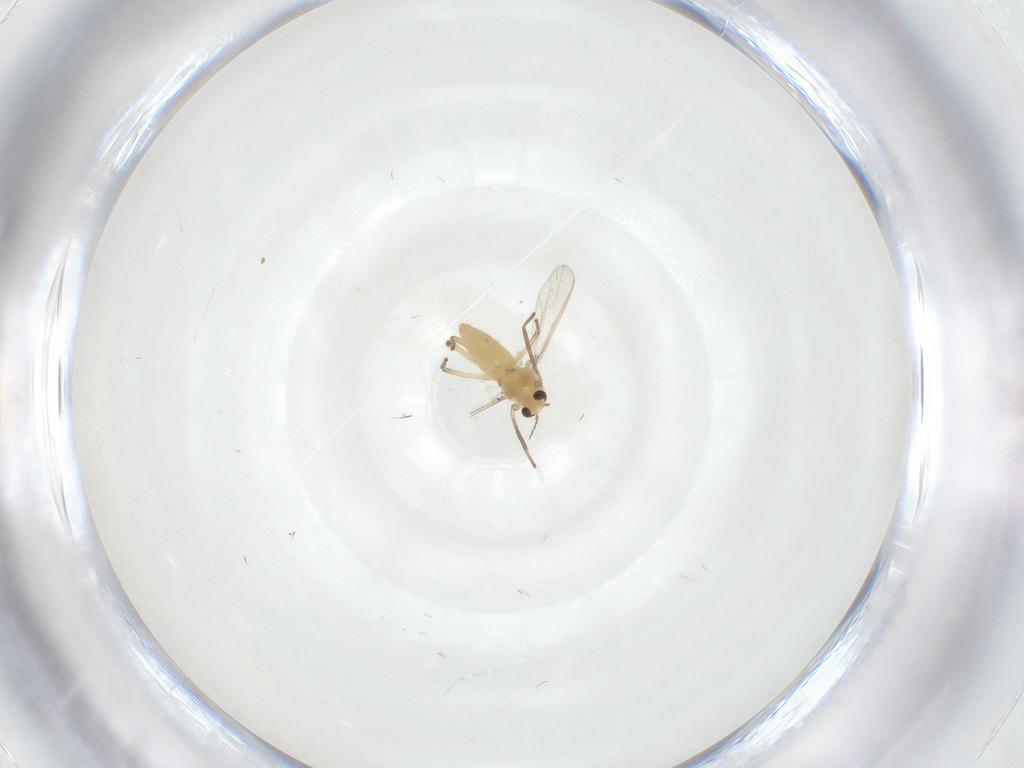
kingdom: Animalia
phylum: Arthropoda
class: Insecta
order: Diptera
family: Chironomidae
